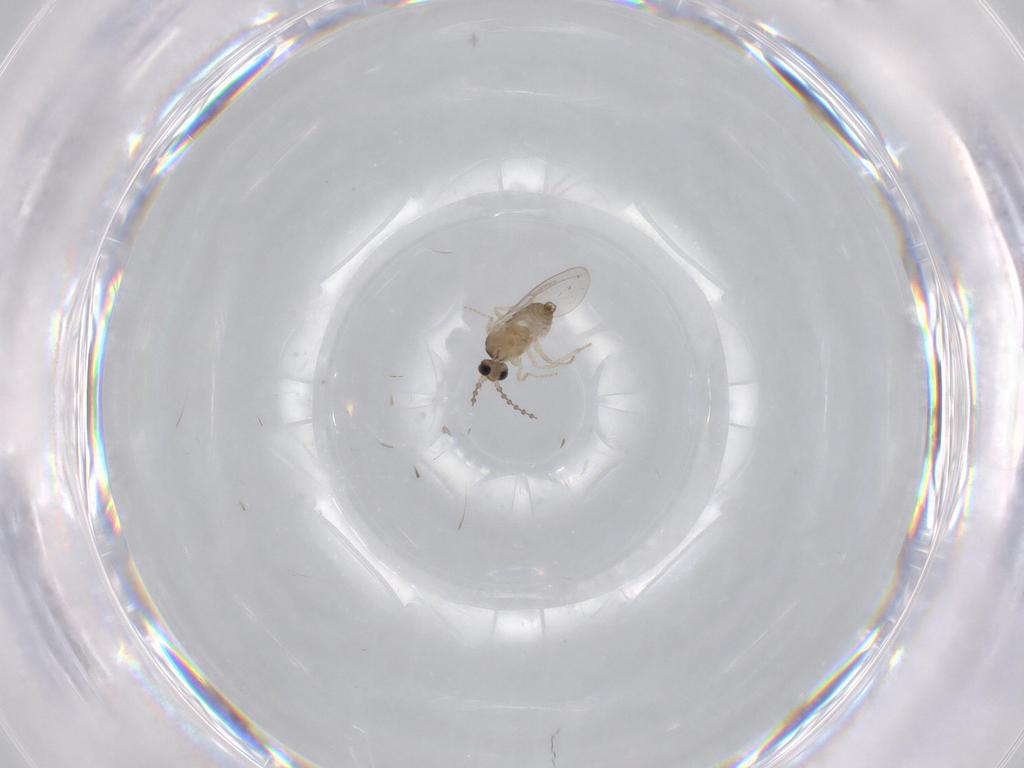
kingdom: Animalia
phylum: Arthropoda
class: Insecta
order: Diptera
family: Cecidomyiidae
